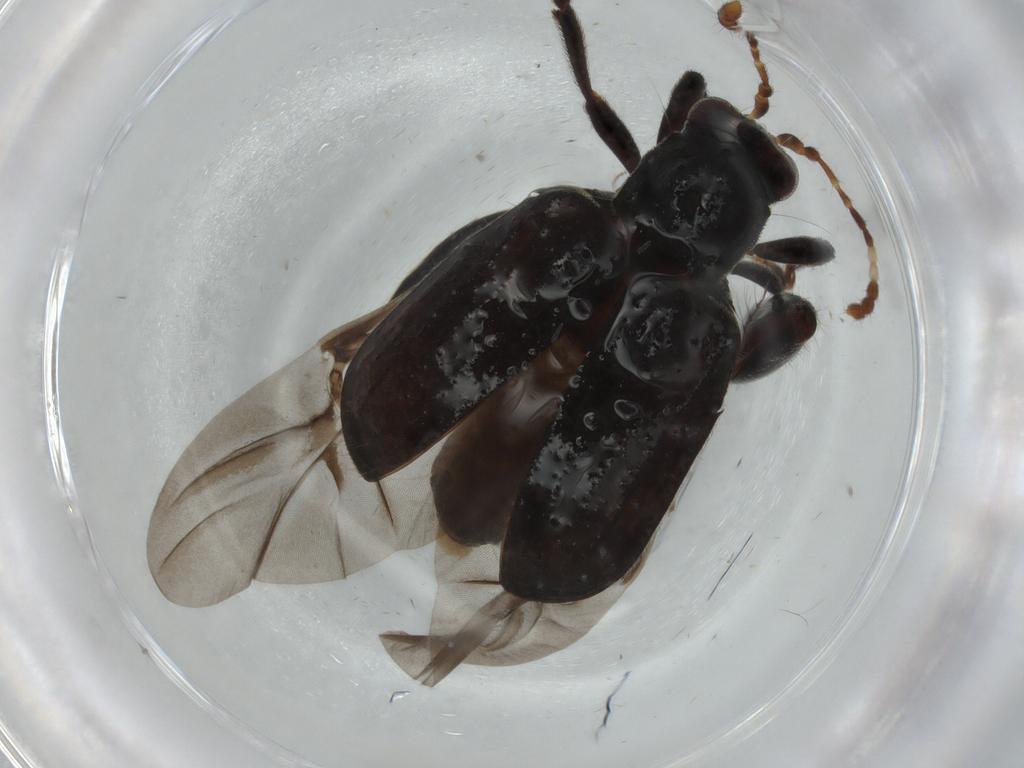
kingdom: Animalia
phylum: Arthropoda
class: Insecta
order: Coleoptera
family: Chrysomelidae
